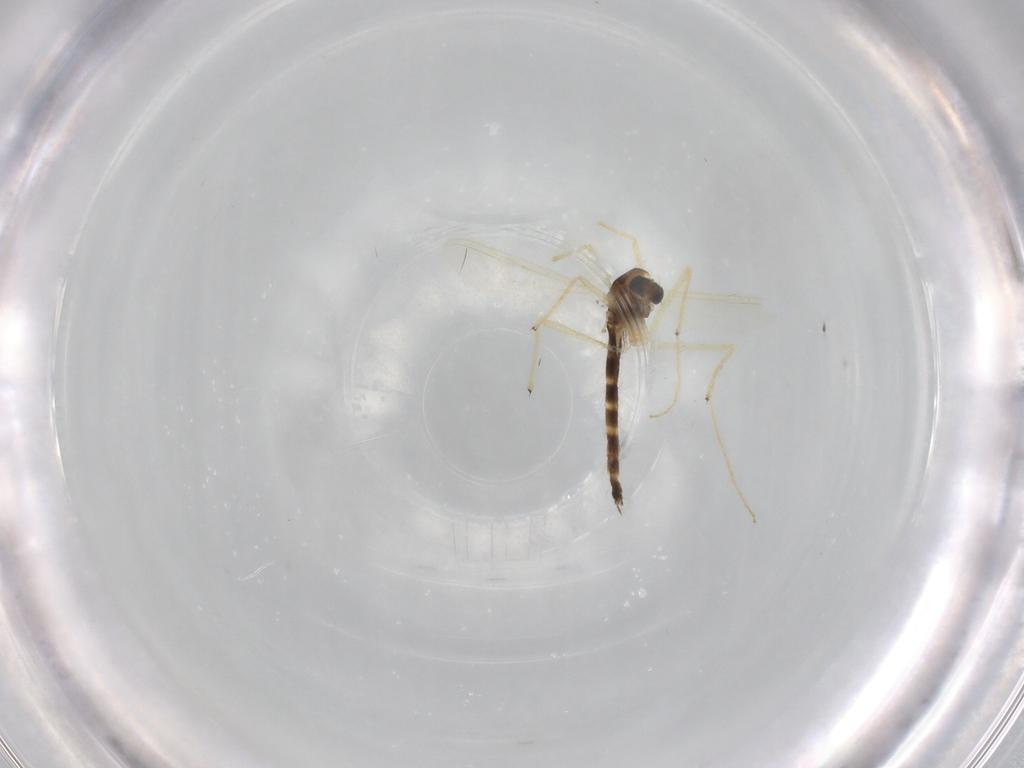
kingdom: Animalia
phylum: Arthropoda
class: Insecta
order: Diptera
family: Chironomidae
